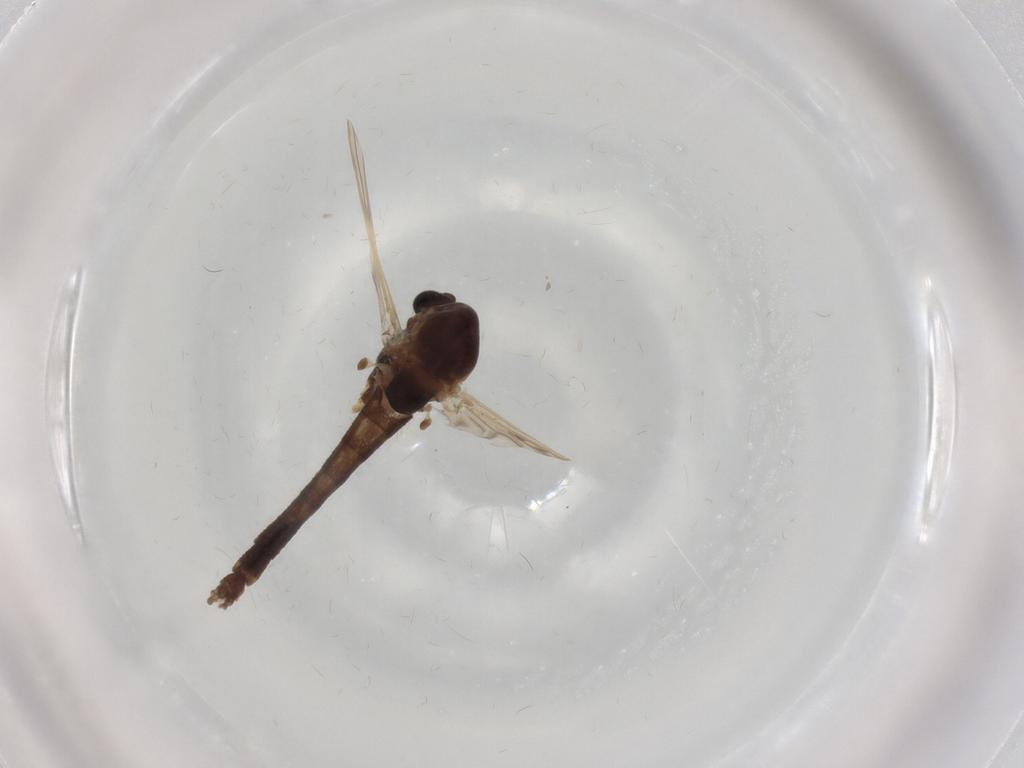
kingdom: Animalia
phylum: Arthropoda
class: Insecta
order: Diptera
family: Chironomidae
